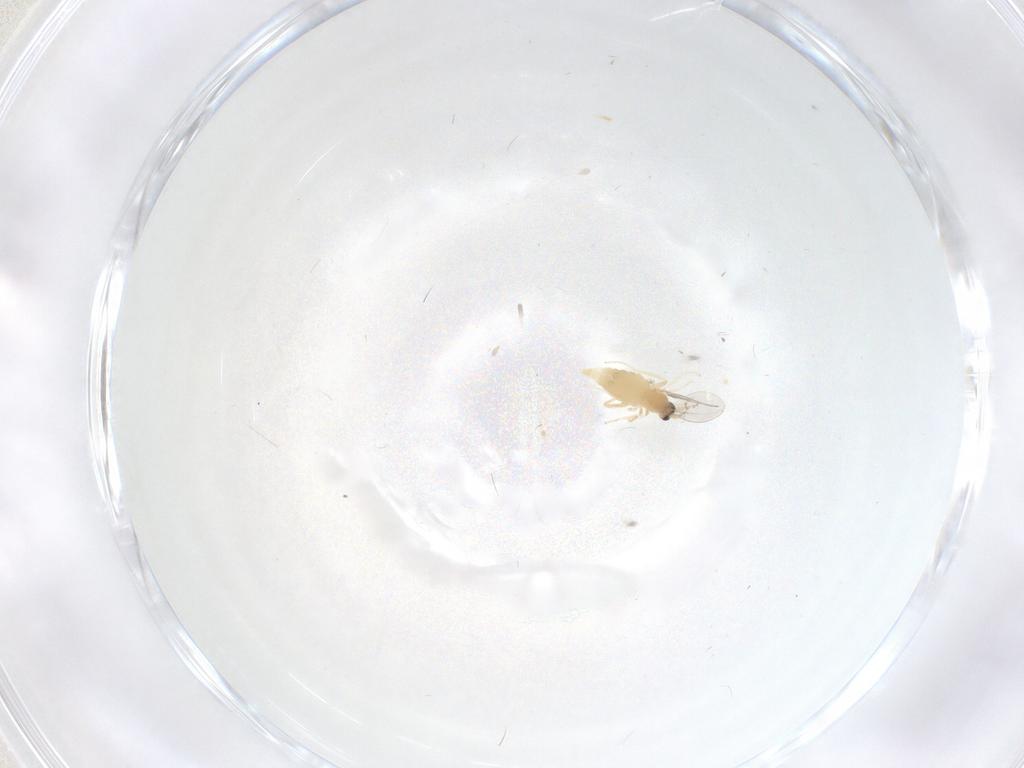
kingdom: Animalia
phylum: Arthropoda
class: Insecta
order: Diptera
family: Cecidomyiidae
